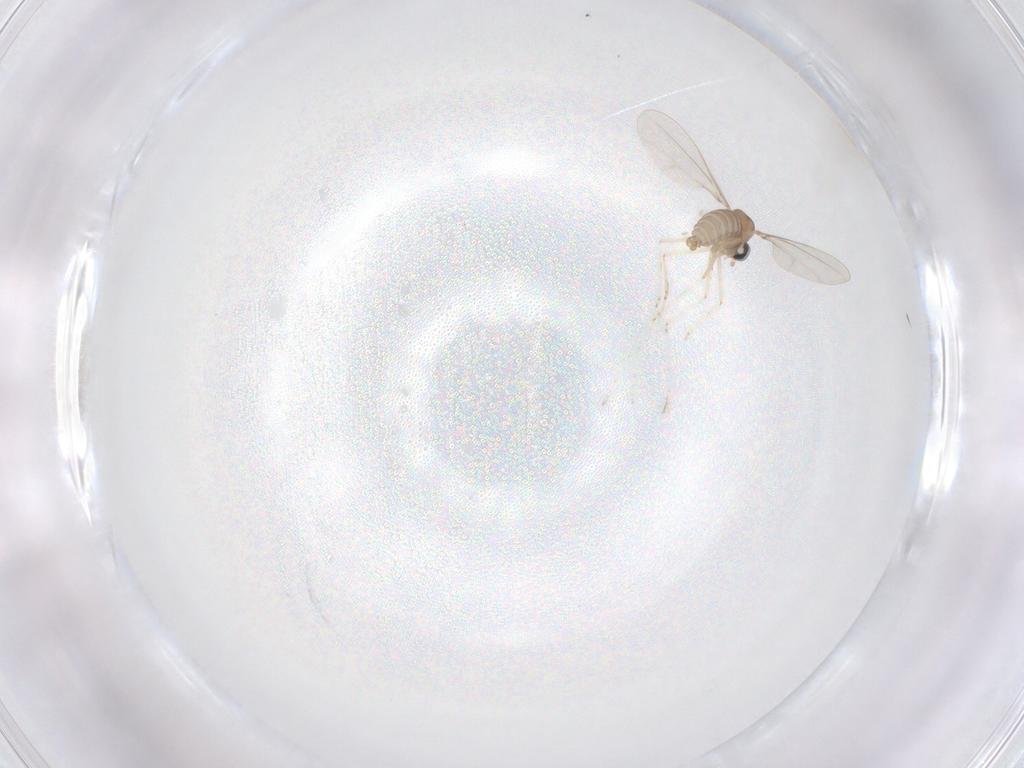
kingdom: Animalia
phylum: Arthropoda
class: Insecta
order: Diptera
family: Cecidomyiidae
